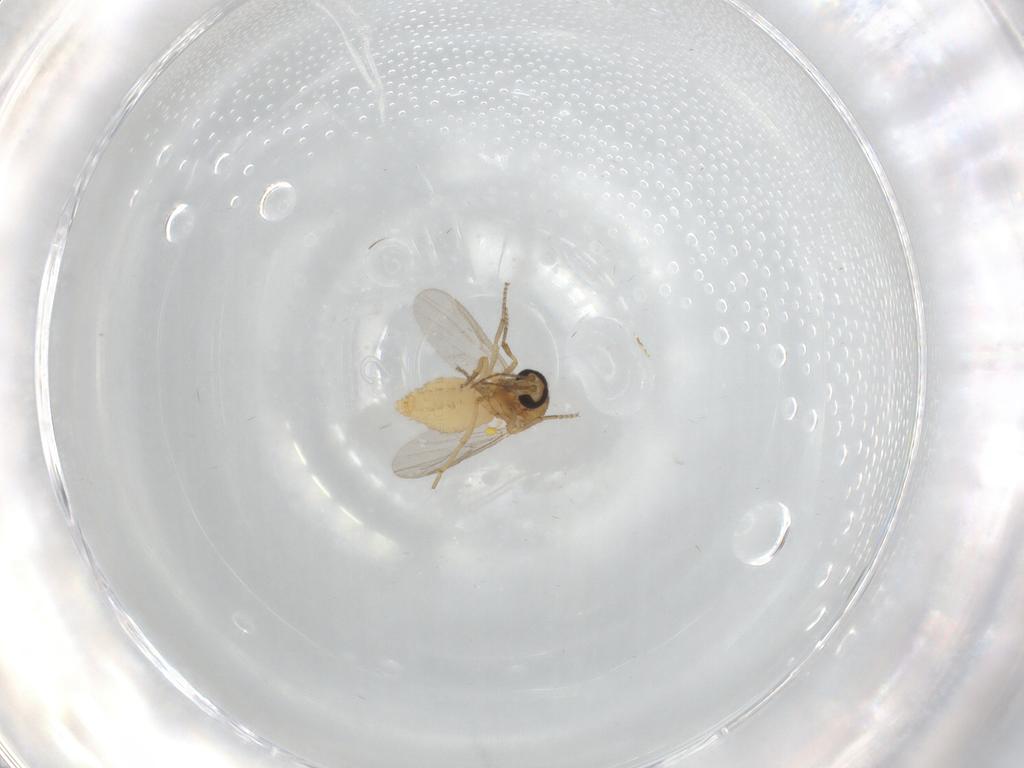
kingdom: Animalia
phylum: Arthropoda
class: Insecta
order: Diptera
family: Ceratopogonidae
